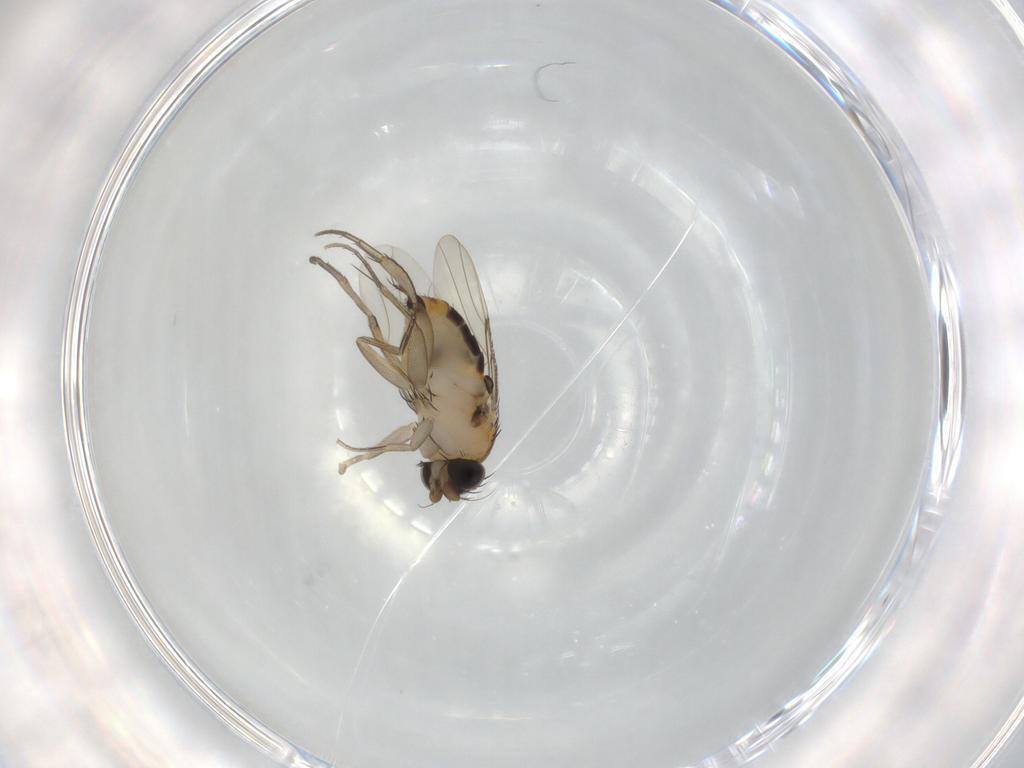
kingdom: Animalia
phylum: Arthropoda
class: Insecta
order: Diptera
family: Phoridae
